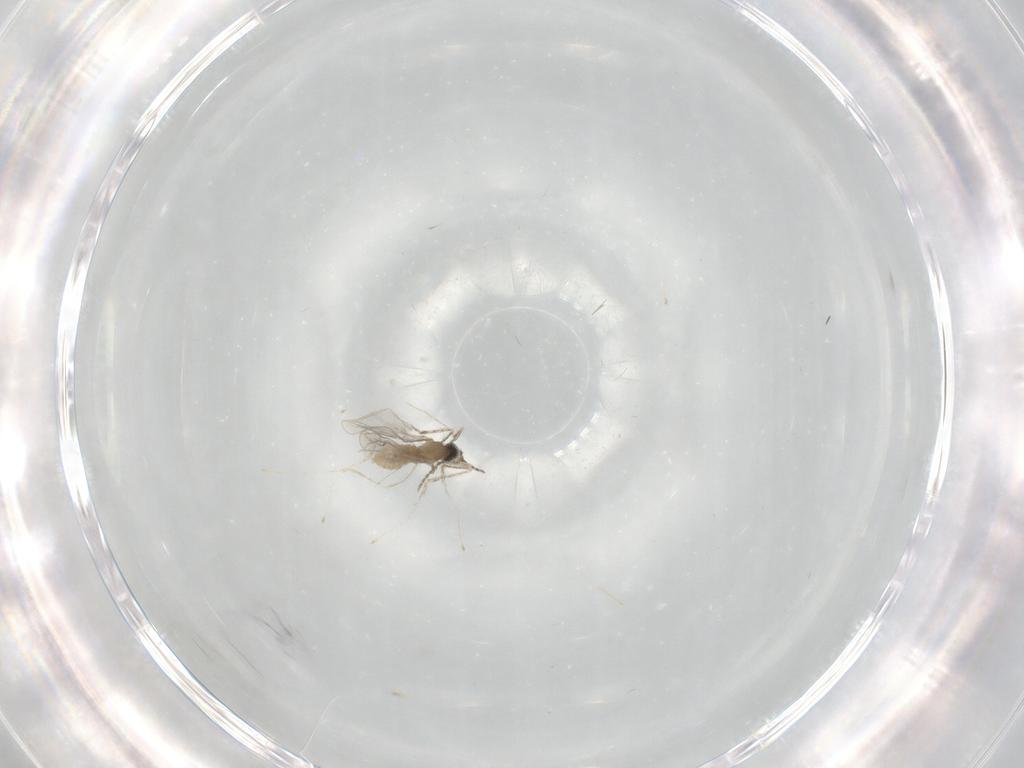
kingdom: Animalia
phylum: Arthropoda
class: Insecta
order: Diptera
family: Cecidomyiidae
